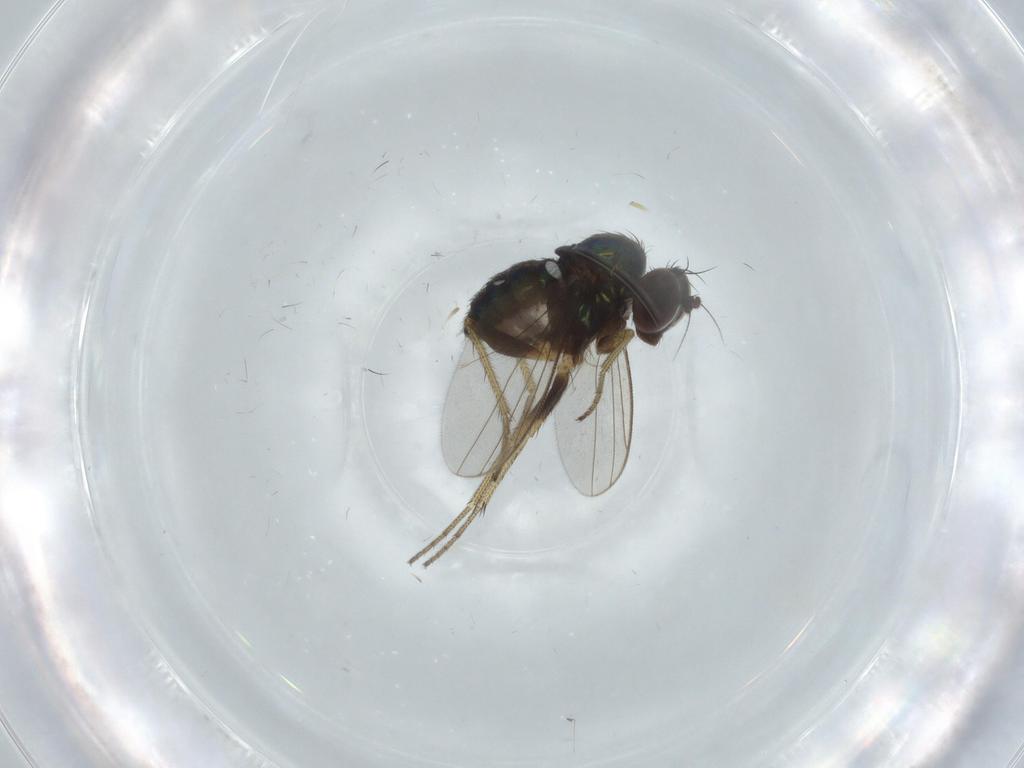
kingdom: Animalia
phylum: Arthropoda
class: Insecta
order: Diptera
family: Dolichopodidae
